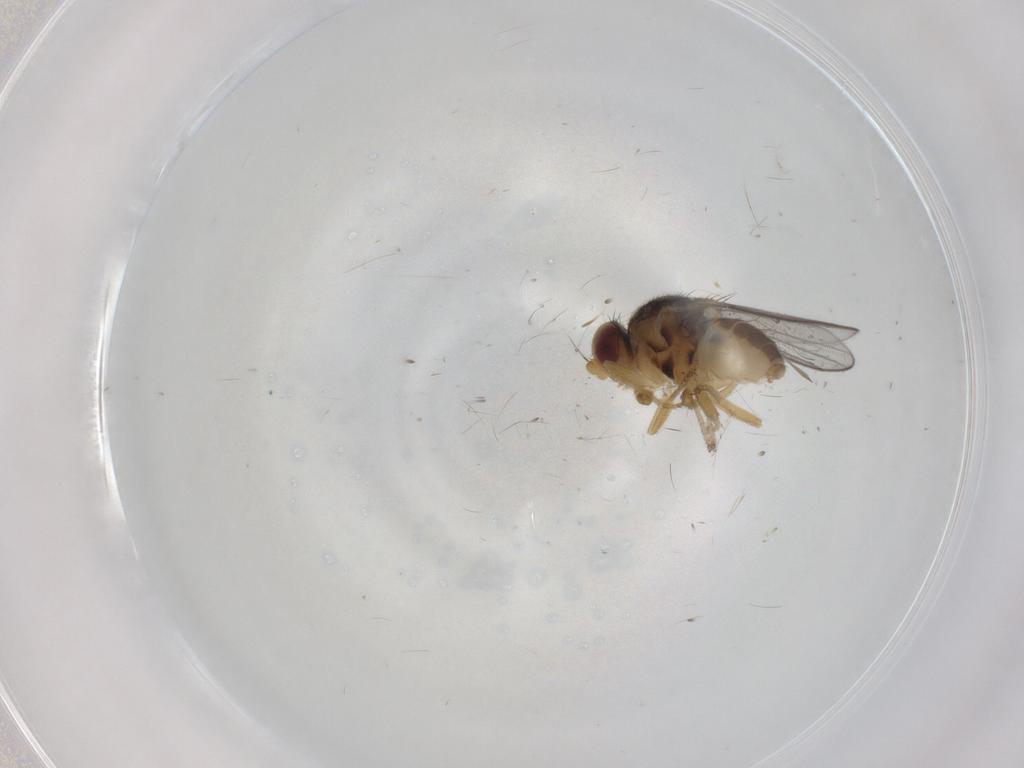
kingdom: Animalia
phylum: Arthropoda
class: Insecta
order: Diptera
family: Chloropidae
